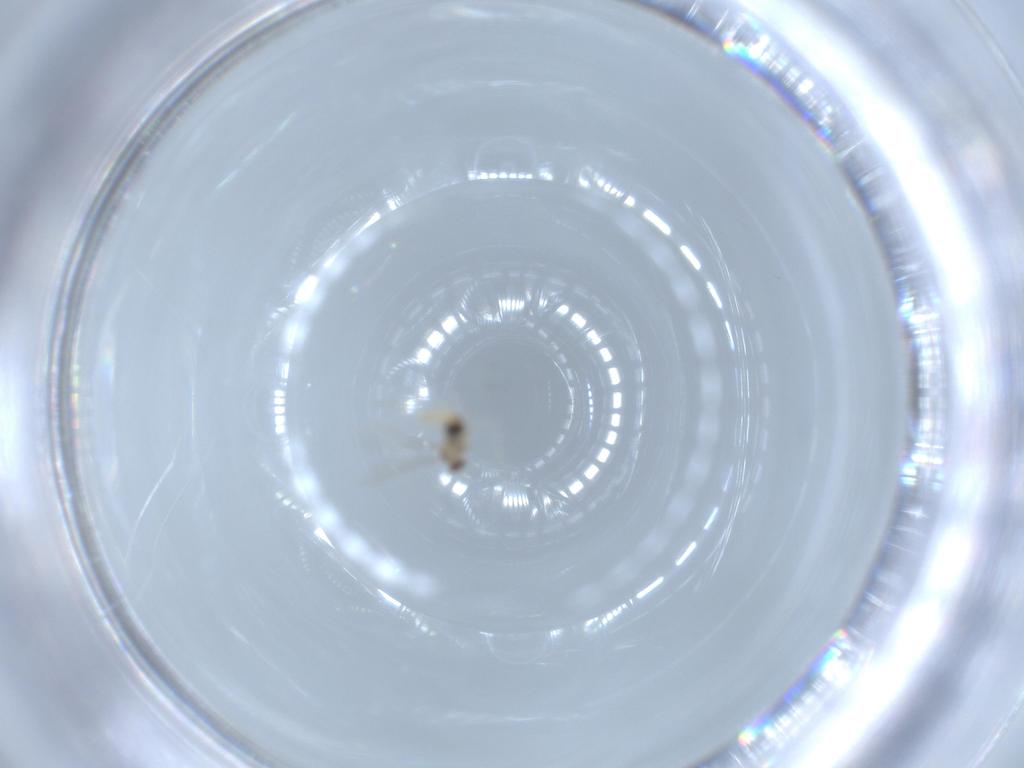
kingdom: Animalia
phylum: Arthropoda
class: Insecta
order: Diptera
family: Cecidomyiidae
